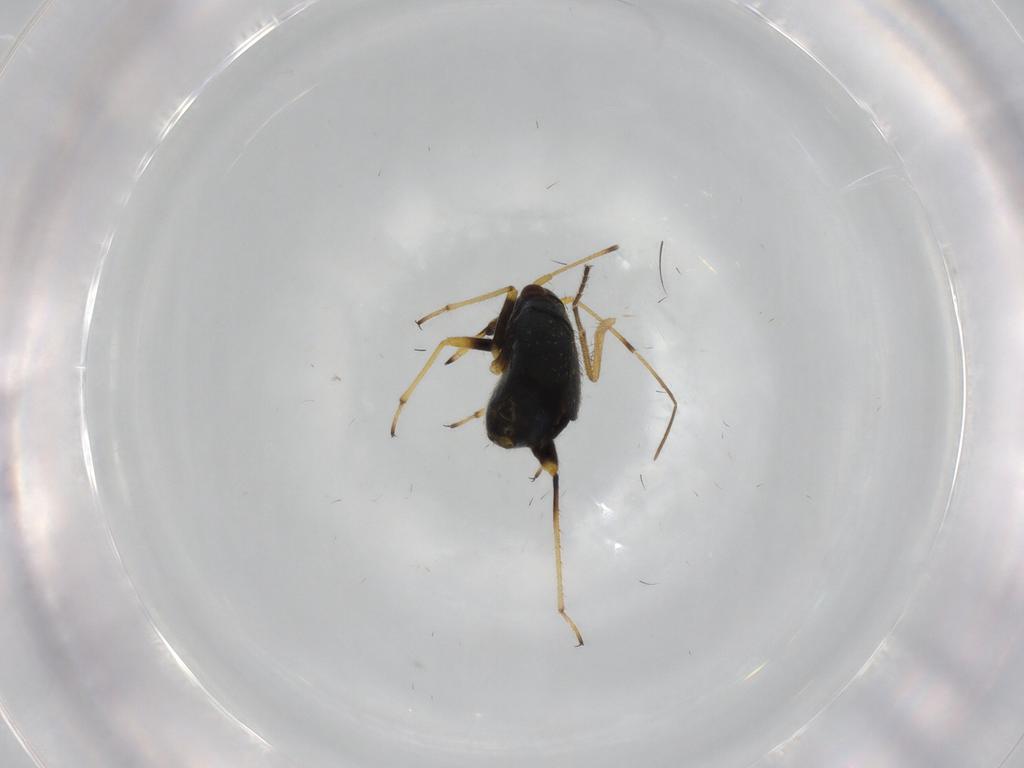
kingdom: Animalia
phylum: Arthropoda
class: Insecta
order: Hemiptera
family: Miridae
